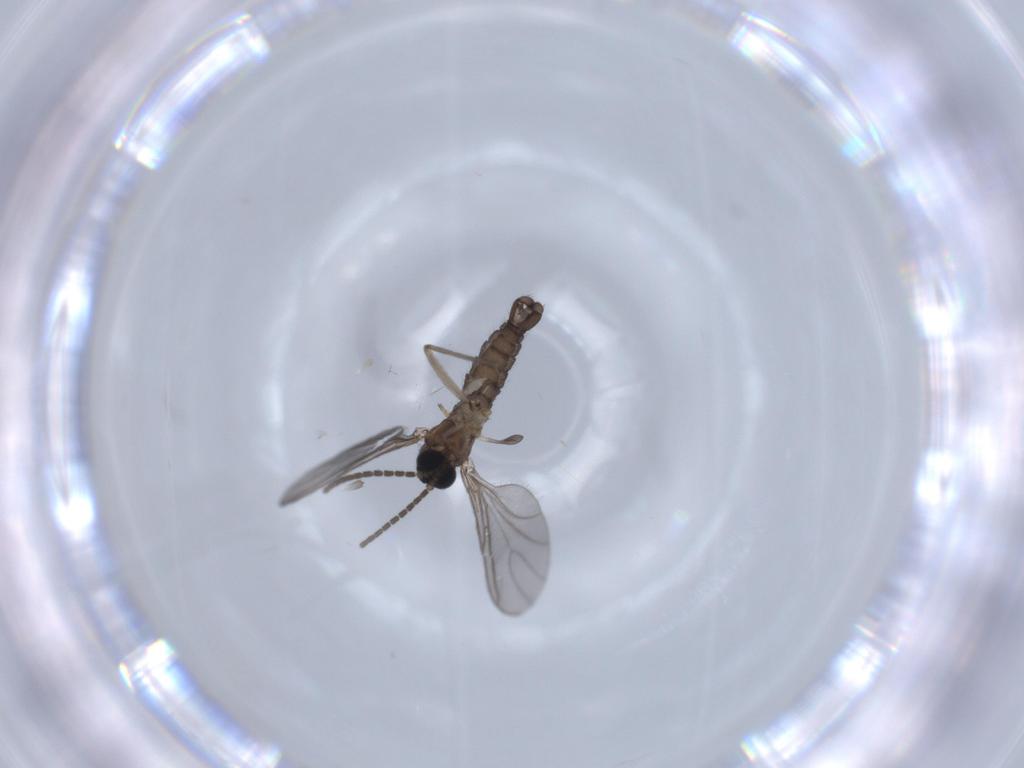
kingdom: Animalia
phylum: Arthropoda
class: Insecta
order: Diptera
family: Sciaridae
